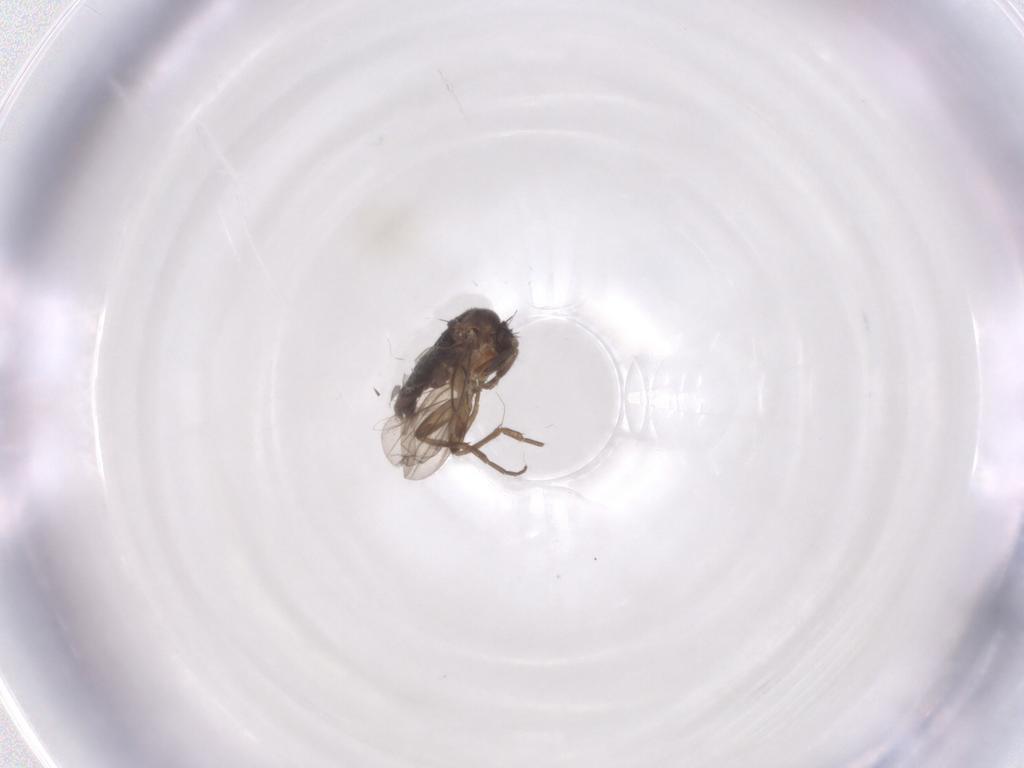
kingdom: Animalia
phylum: Arthropoda
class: Insecta
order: Diptera
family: Phoridae
